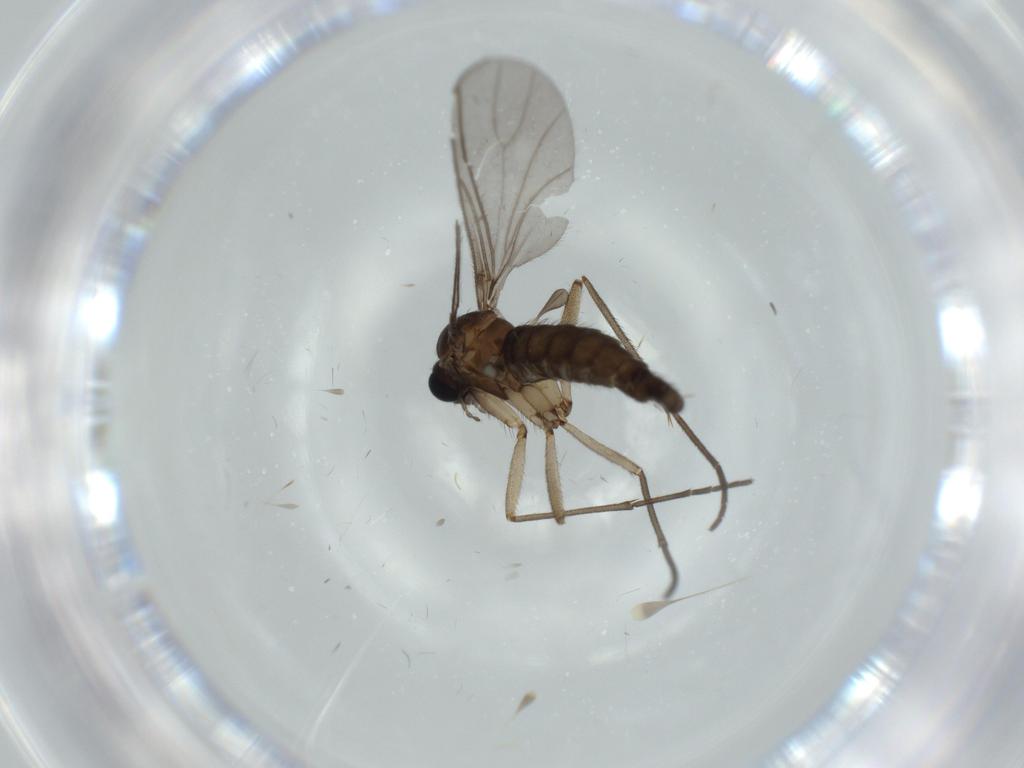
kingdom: Animalia
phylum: Arthropoda
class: Insecta
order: Diptera
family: Sciaridae
